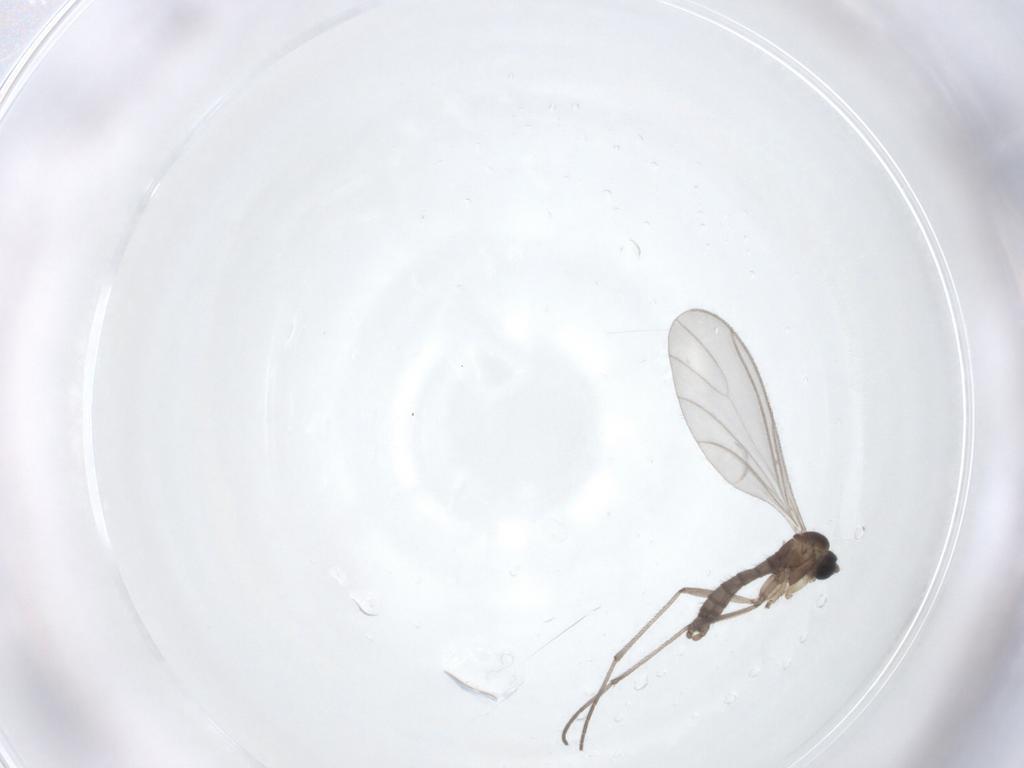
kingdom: Animalia
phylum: Arthropoda
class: Insecta
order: Diptera
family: Sciaridae
